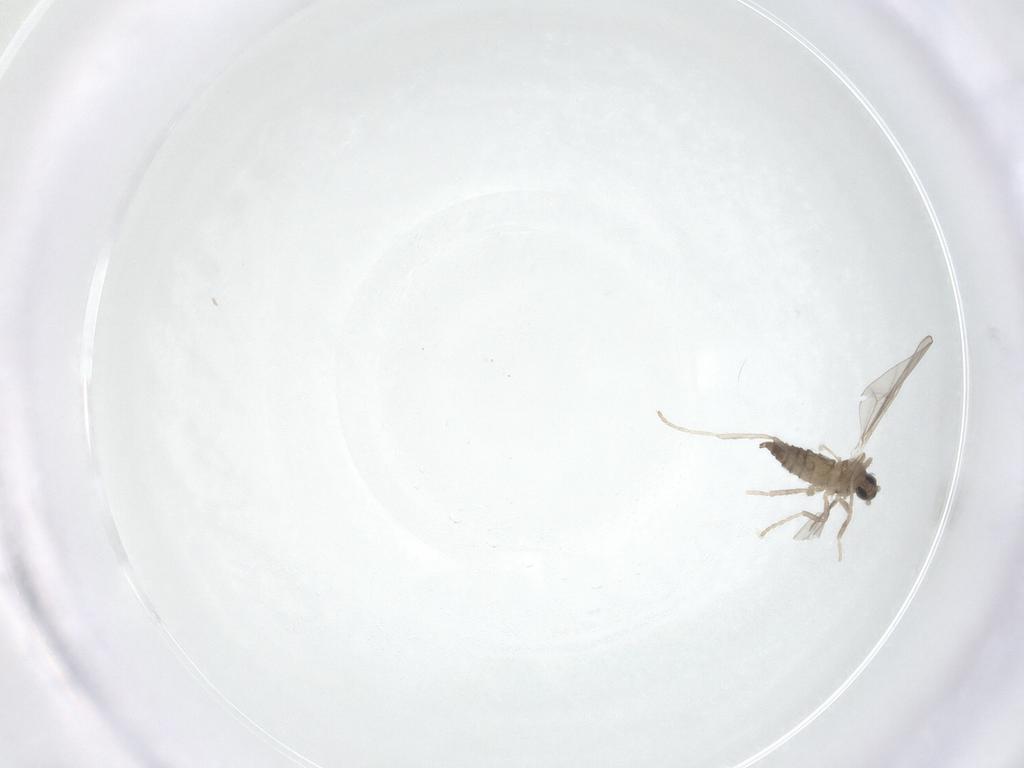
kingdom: Animalia
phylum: Arthropoda
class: Insecta
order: Diptera
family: Cecidomyiidae
